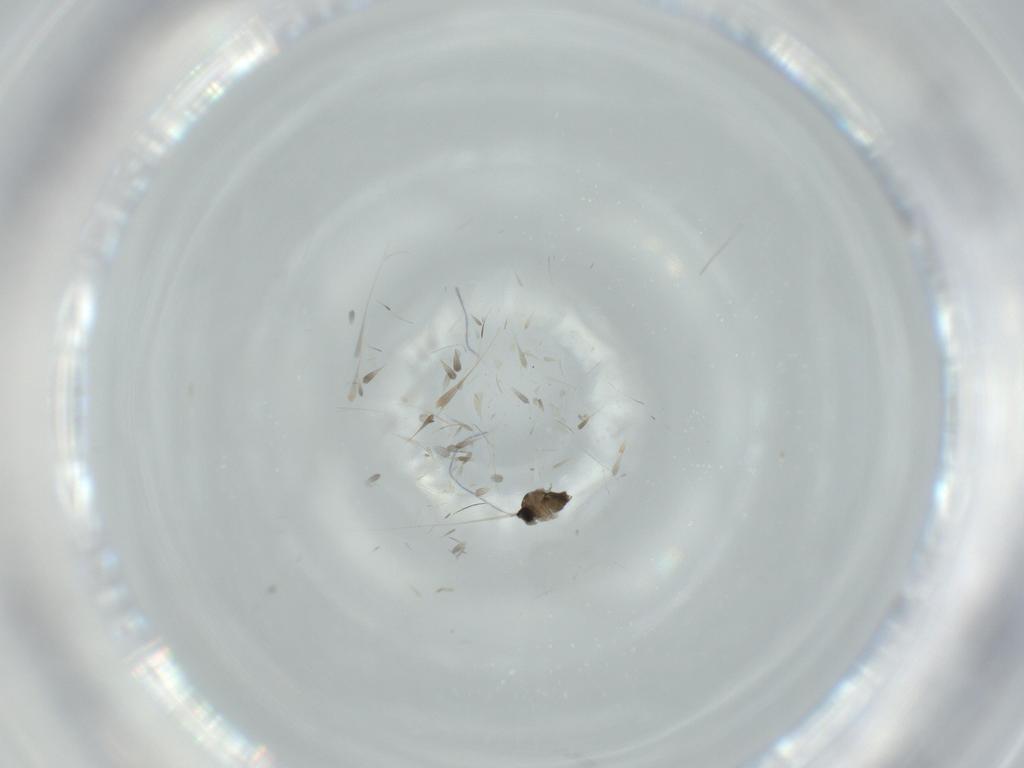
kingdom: Animalia
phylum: Arthropoda
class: Insecta
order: Diptera
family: Cecidomyiidae
